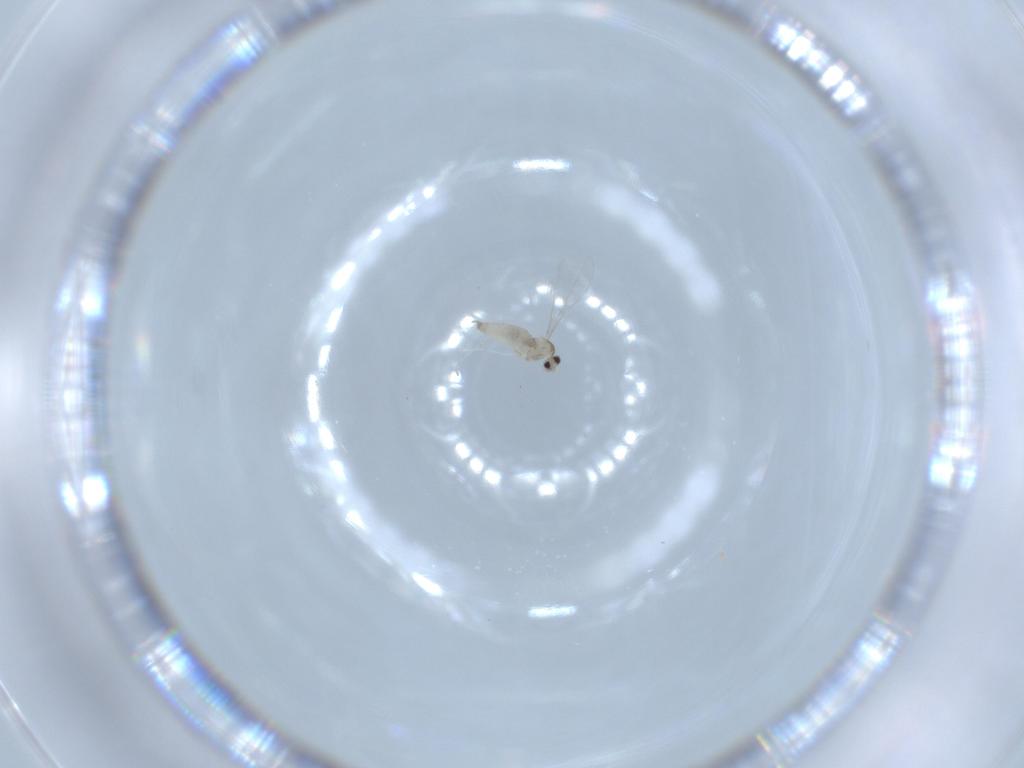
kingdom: Animalia
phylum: Arthropoda
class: Insecta
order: Diptera
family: Cecidomyiidae
